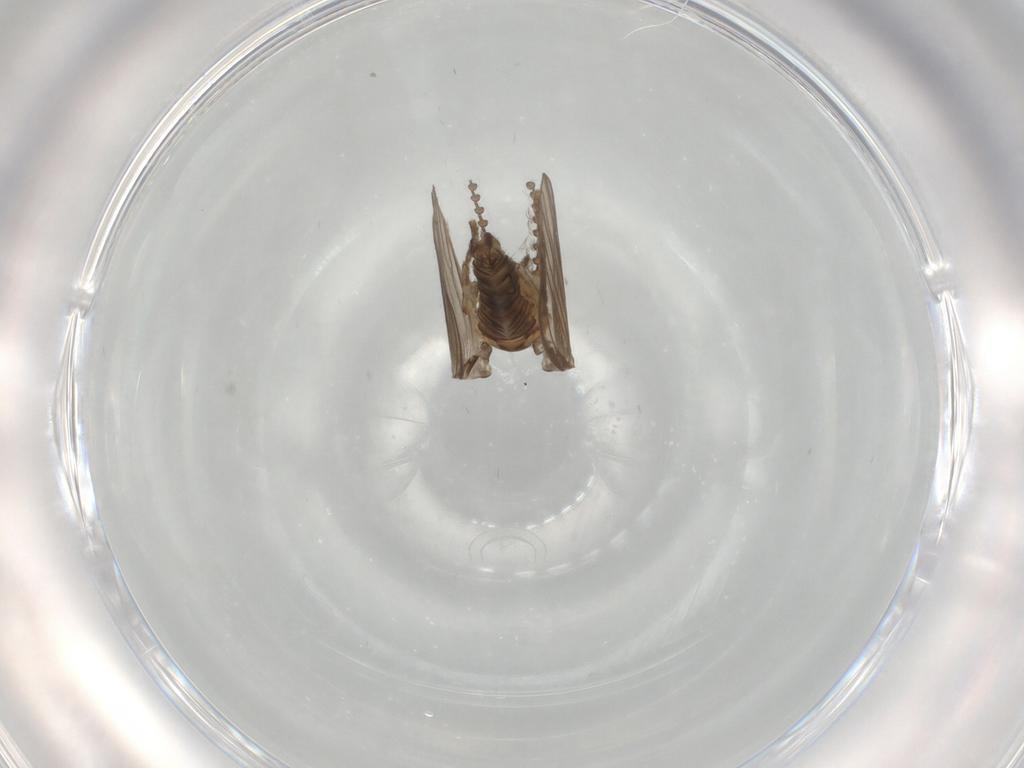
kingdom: Animalia
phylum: Arthropoda
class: Insecta
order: Diptera
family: Psychodidae
